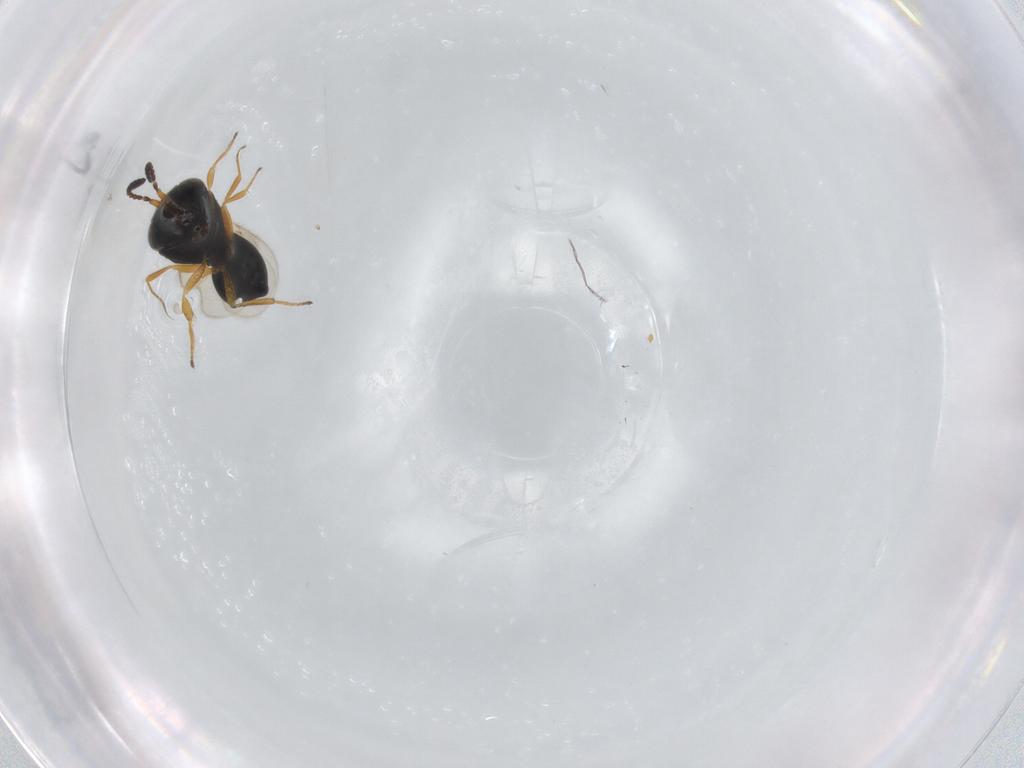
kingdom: Animalia
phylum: Arthropoda
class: Insecta
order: Hymenoptera
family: Scelionidae
